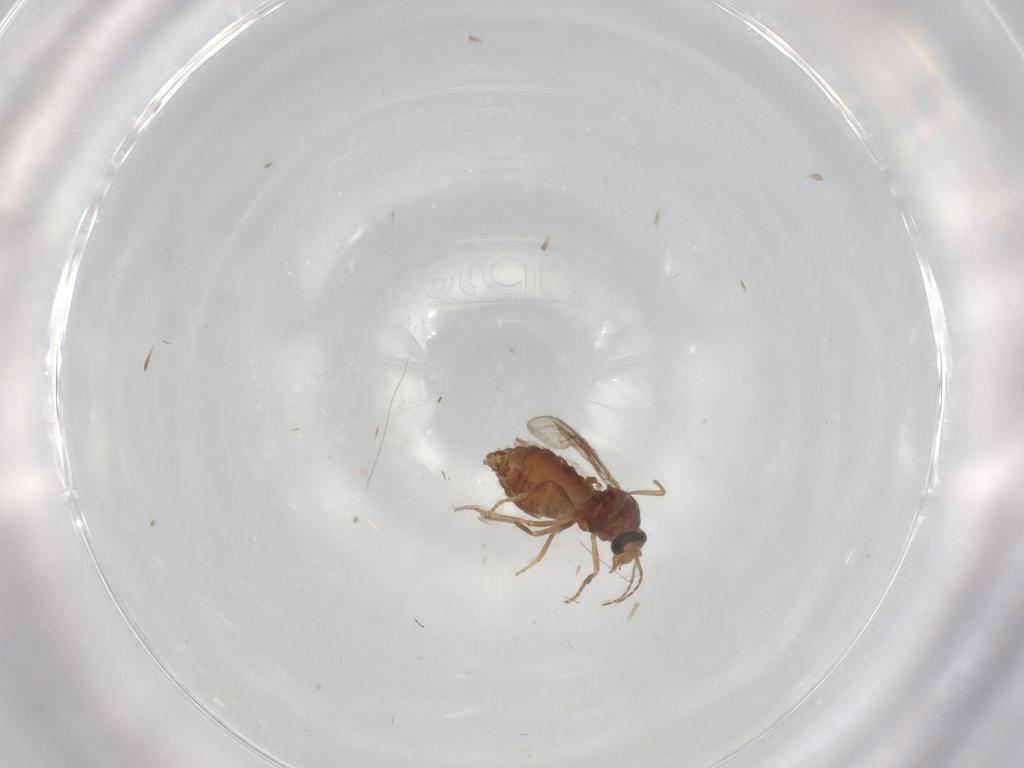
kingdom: Animalia
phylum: Arthropoda
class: Insecta
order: Diptera
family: Ceratopogonidae
